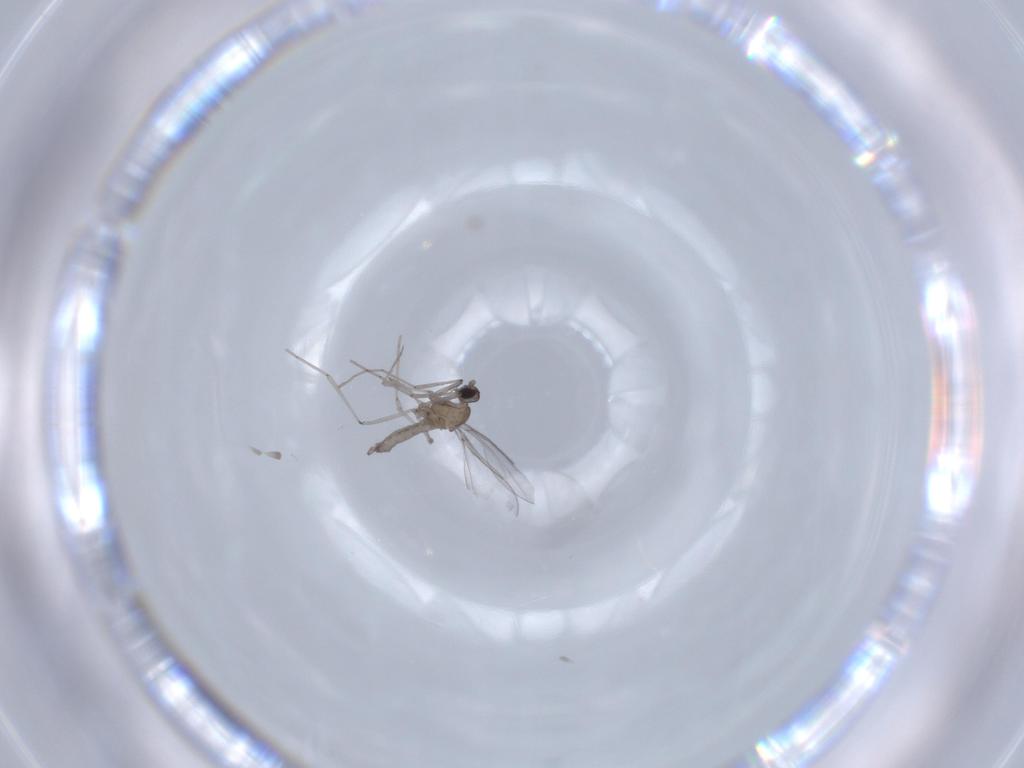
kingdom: Animalia
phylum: Arthropoda
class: Insecta
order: Diptera
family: Cecidomyiidae
